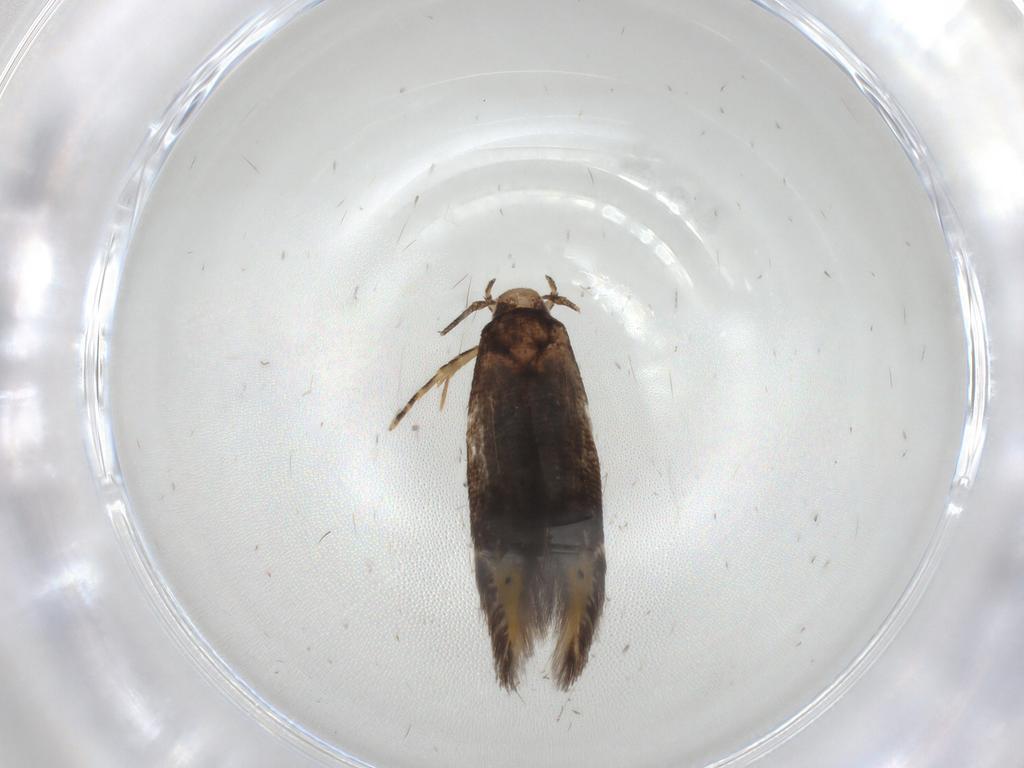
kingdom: Animalia
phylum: Arthropoda
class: Insecta
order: Lepidoptera
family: Cosmopterigidae
